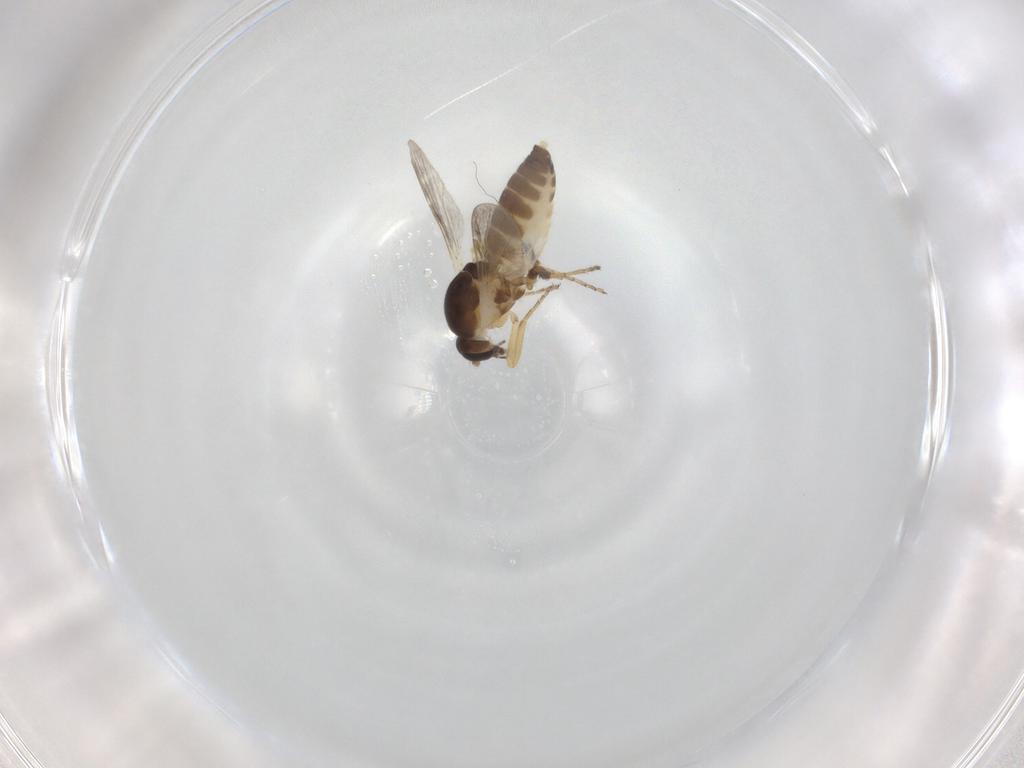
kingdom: Animalia
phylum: Arthropoda
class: Insecta
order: Diptera
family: Ceratopogonidae
